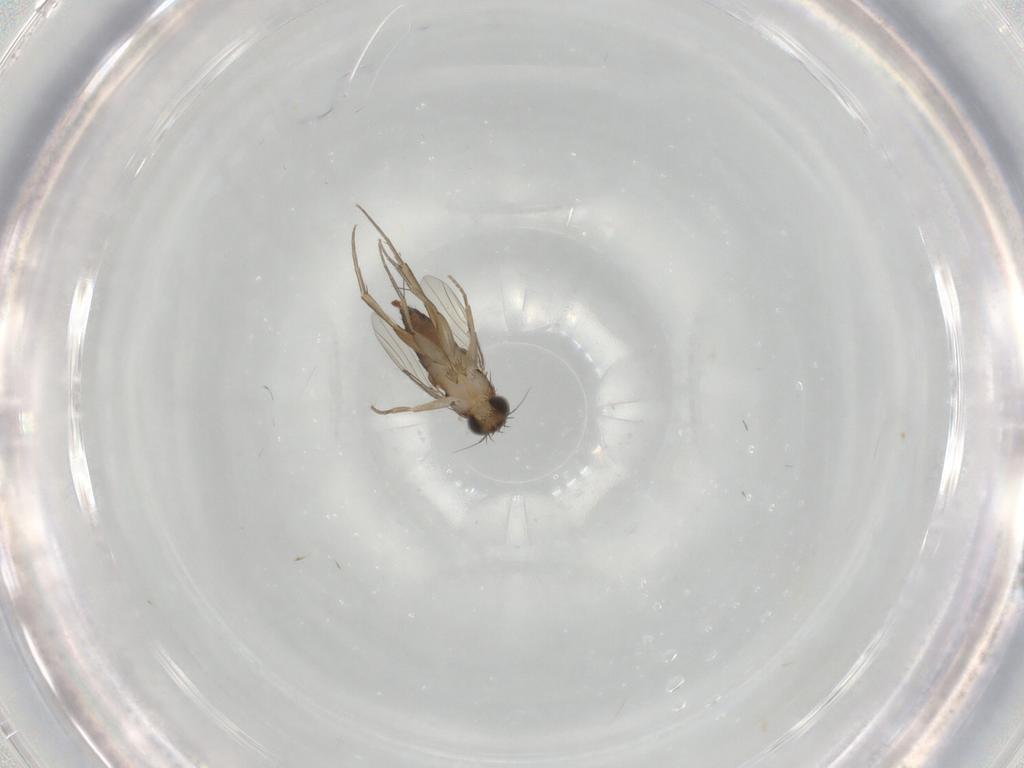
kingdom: Animalia
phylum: Arthropoda
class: Insecta
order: Diptera
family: Phoridae
